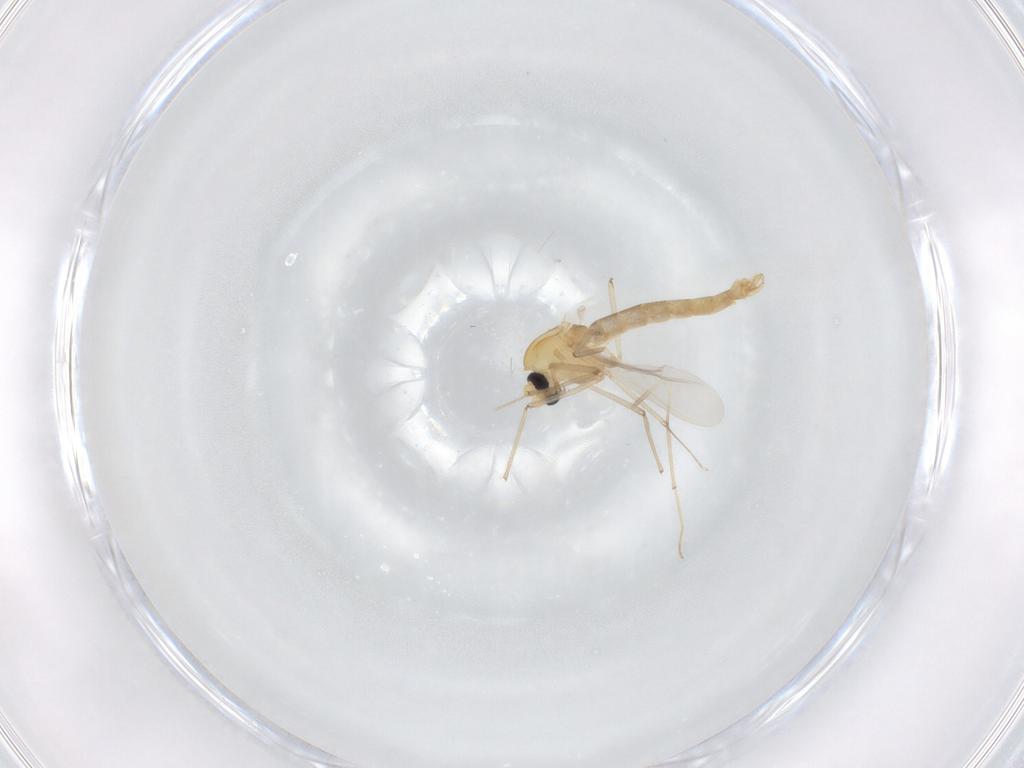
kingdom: Animalia
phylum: Arthropoda
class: Insecta
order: Diptera
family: Chironomidae
